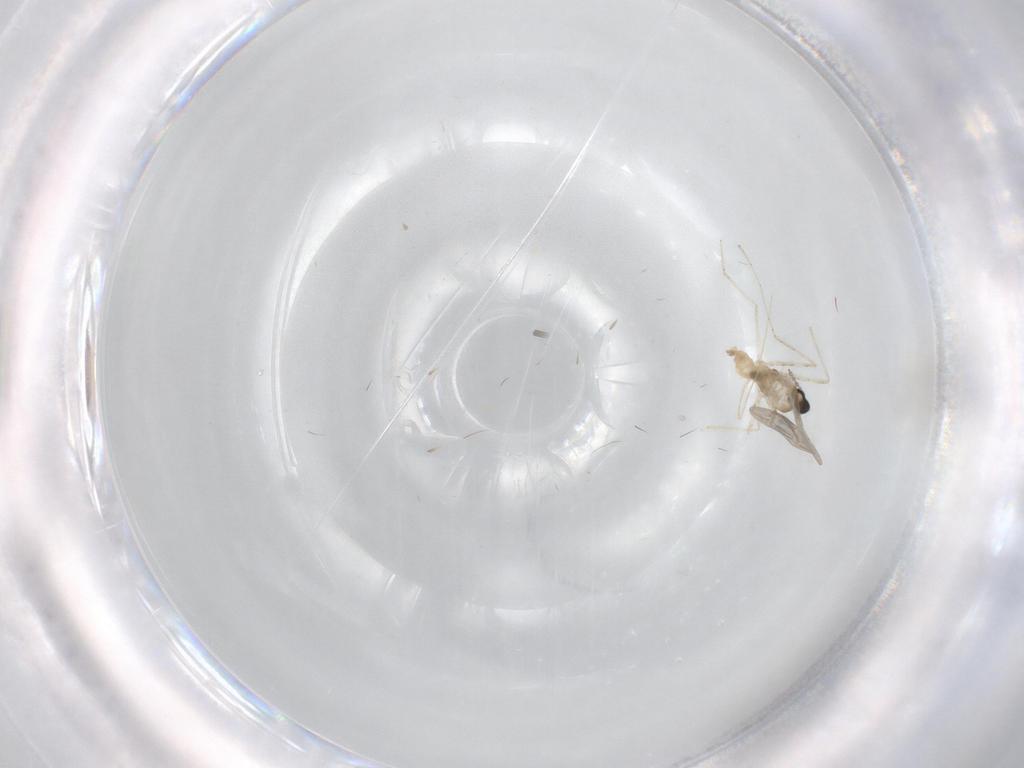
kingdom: Animalia
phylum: Arthropoda
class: Insecta
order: Diptera
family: Cecidomyiidae
